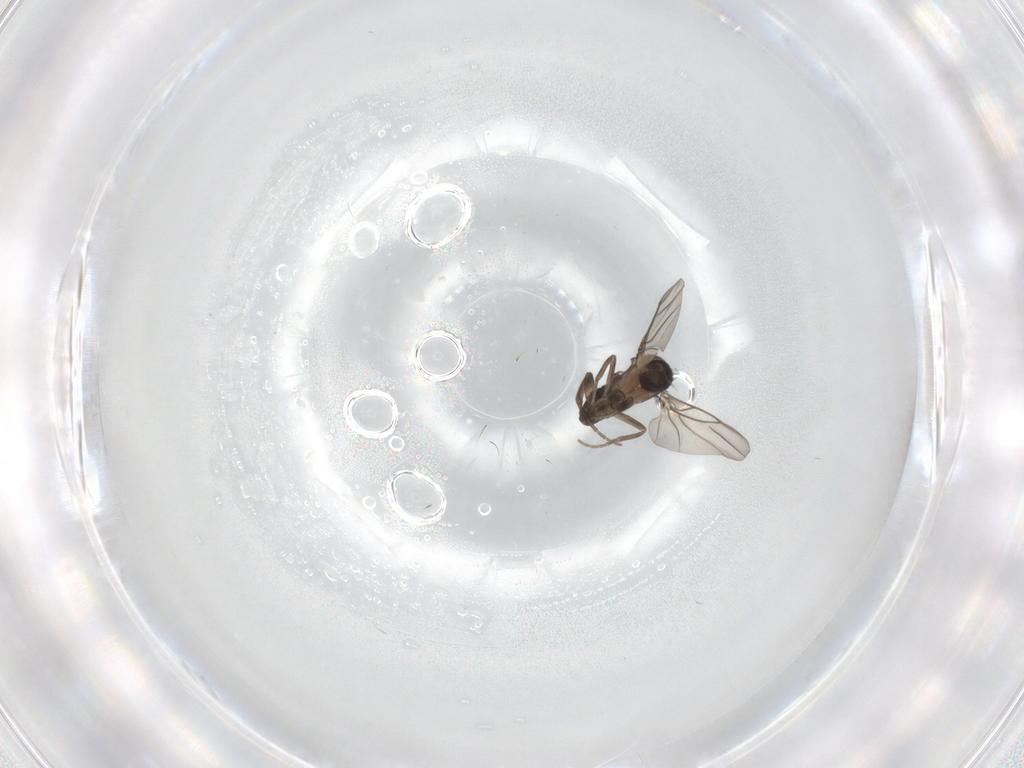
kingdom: Animalia
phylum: Arthropoda
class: Insecta
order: Diptera
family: Phoridae
